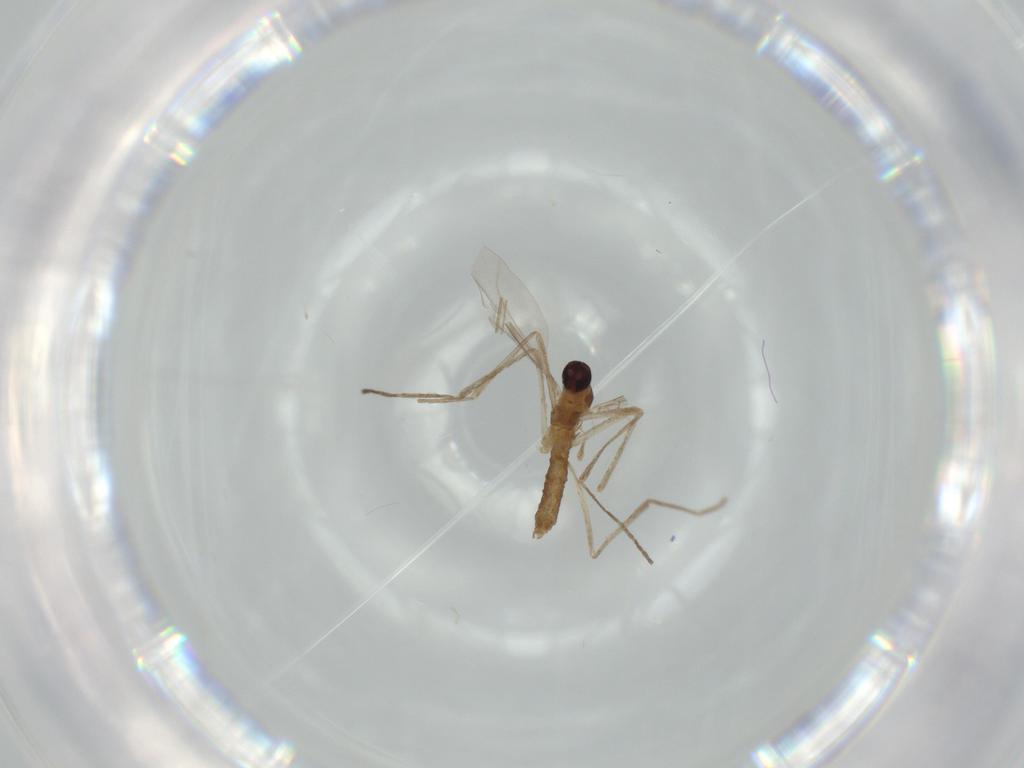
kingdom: Animalia
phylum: Arthropoda
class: Insecta
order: Diptera
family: Cecidomyiidae
